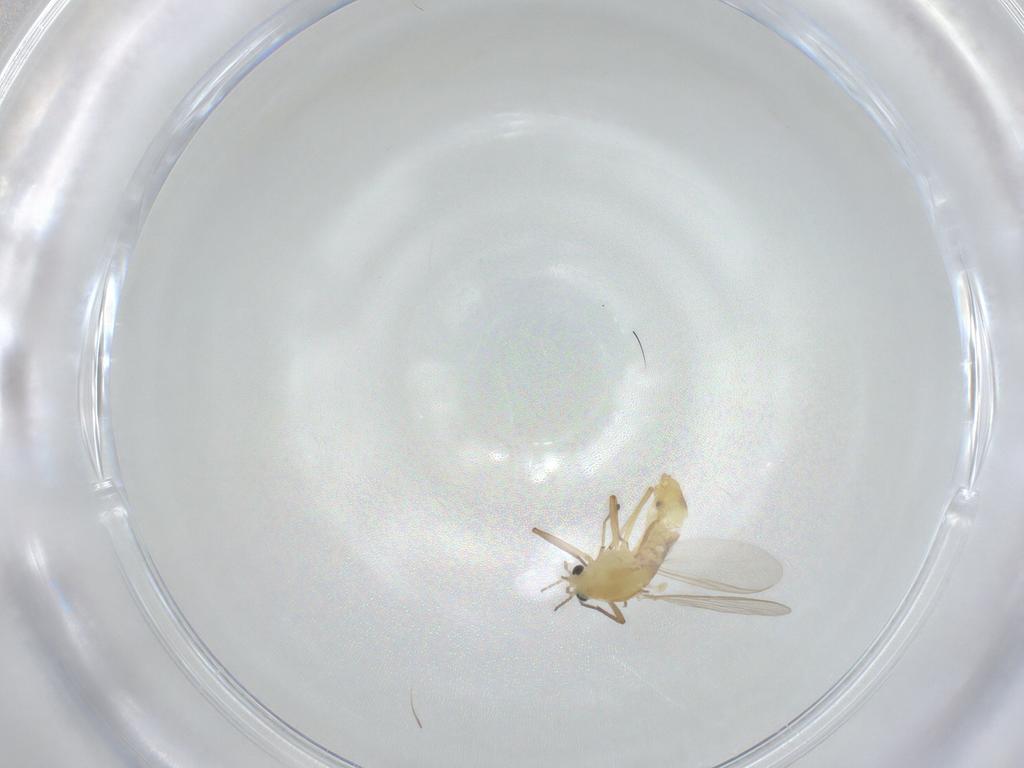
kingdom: Animalia
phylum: Arthropoda
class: Insecta
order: Diptera
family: Chironomidae
